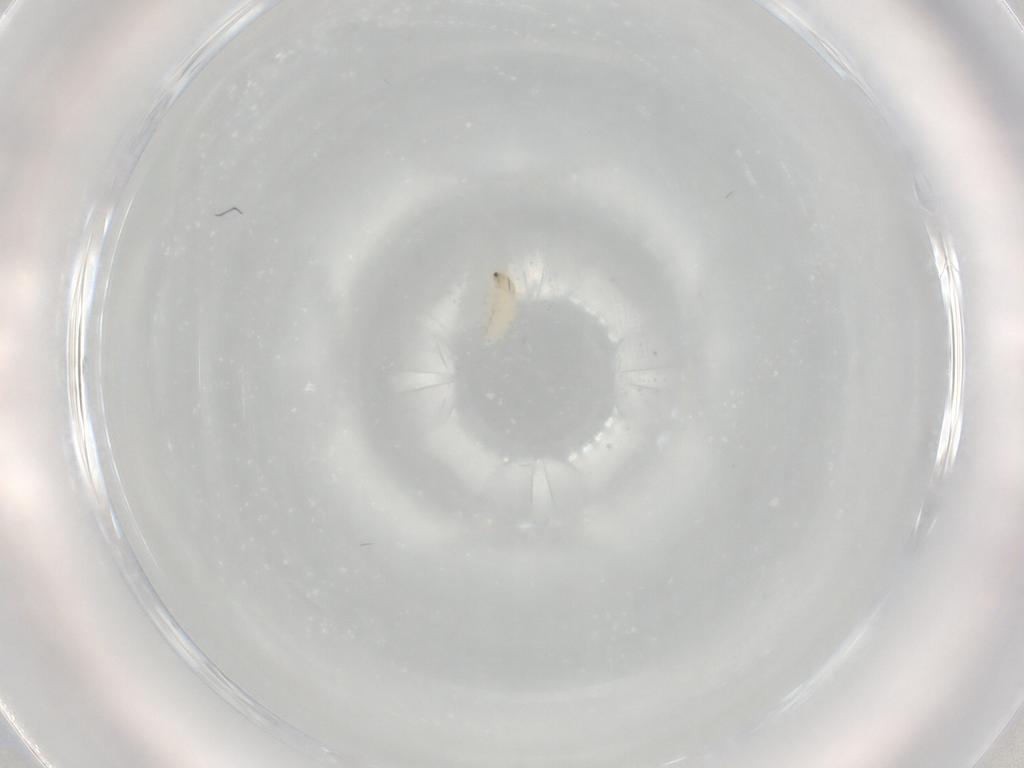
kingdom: Animalia
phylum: Arthropoda
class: Insecta
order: Coleoptera
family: Chrysomelidae
